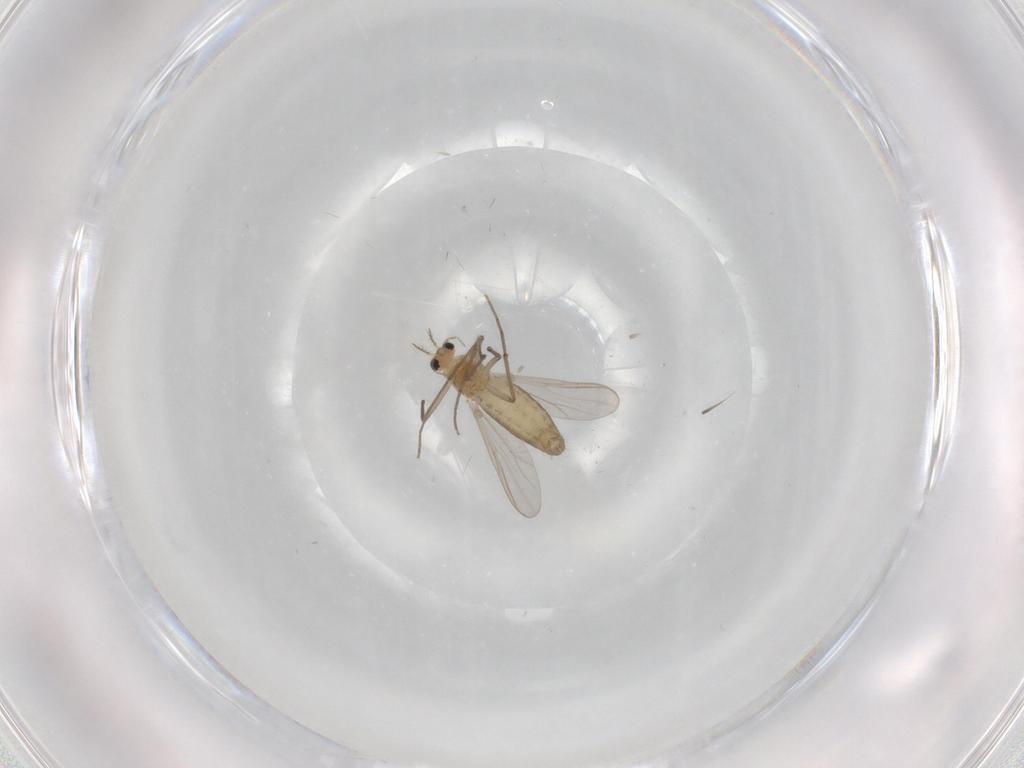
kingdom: Animalia
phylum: Arthropoda
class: Insecta
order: Diptera
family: Chironomidae
